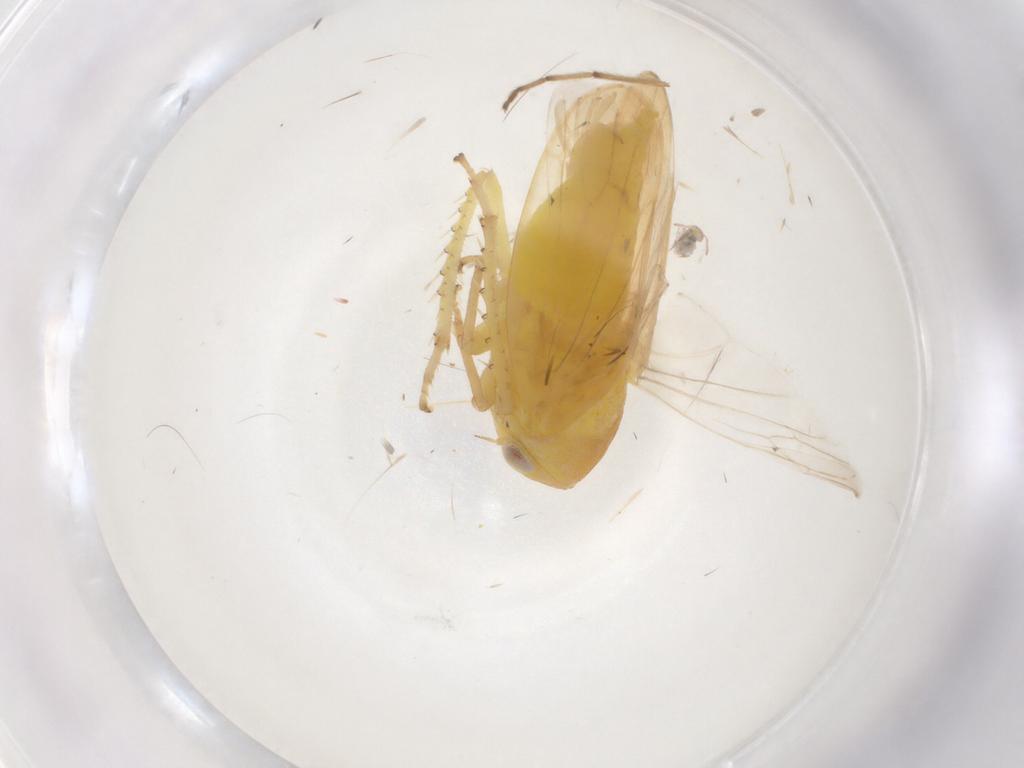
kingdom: Animalia
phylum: Arthropoda
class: Insecta
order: Hemiptera
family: Cicadellidae
